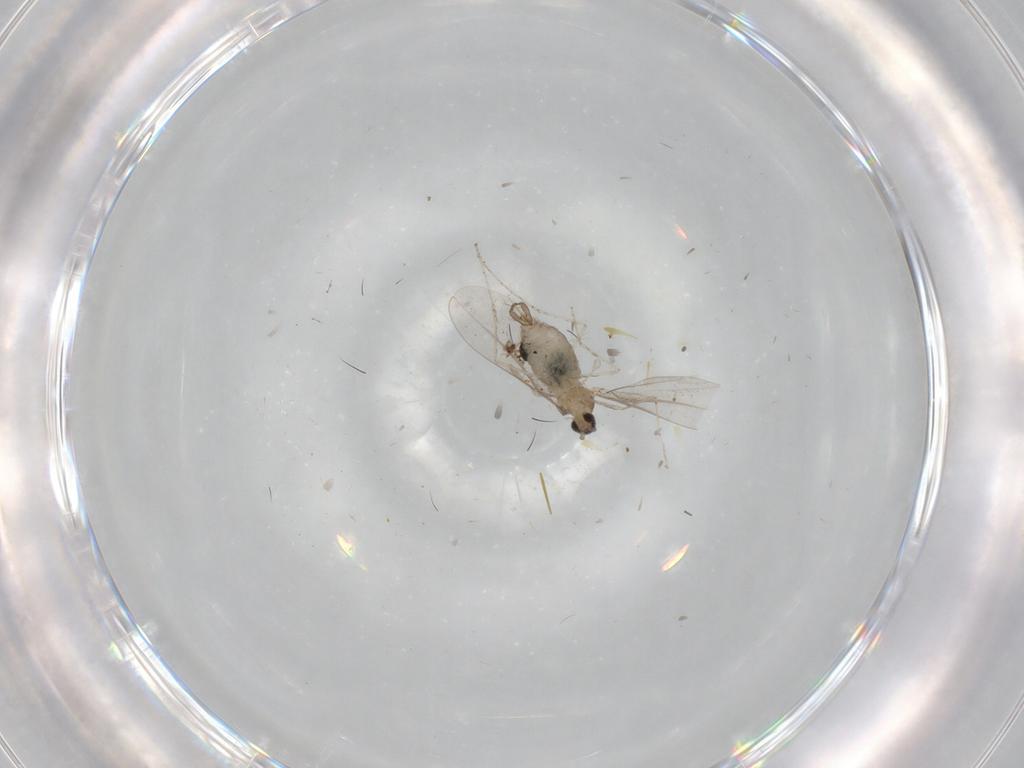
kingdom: Animalia
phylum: Arthropoda
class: Insecta
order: Diptera
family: Cecidomyiidae
